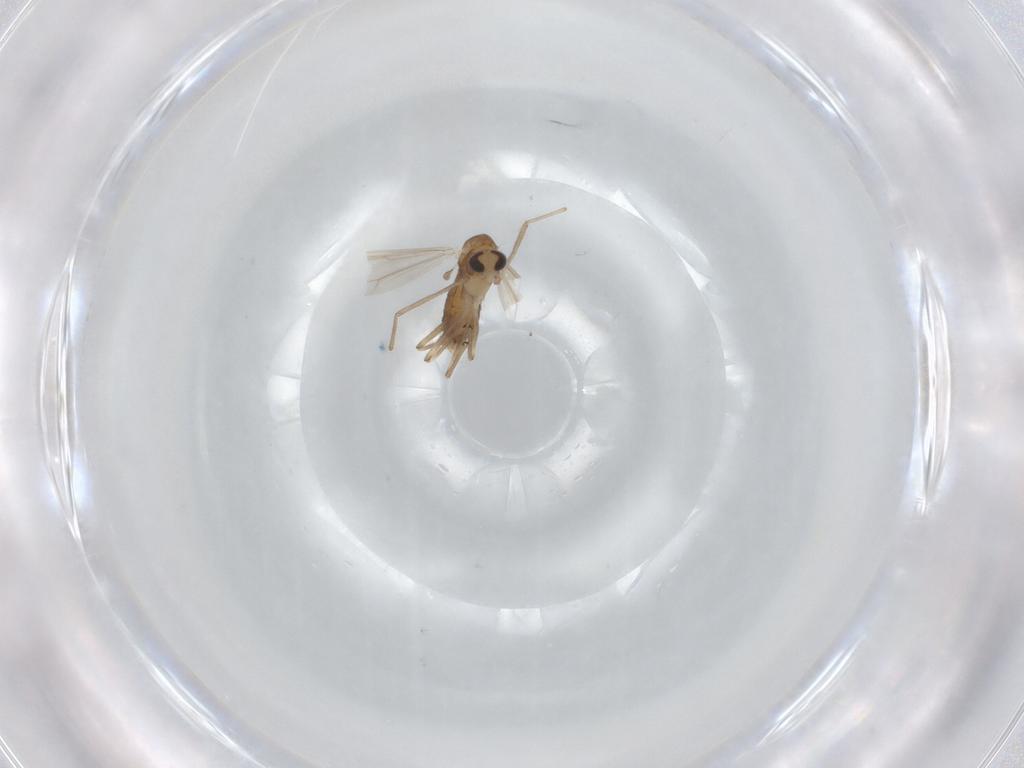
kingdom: Animalia
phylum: Arthropoda
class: Insecta
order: Diptera
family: Chironomidae
